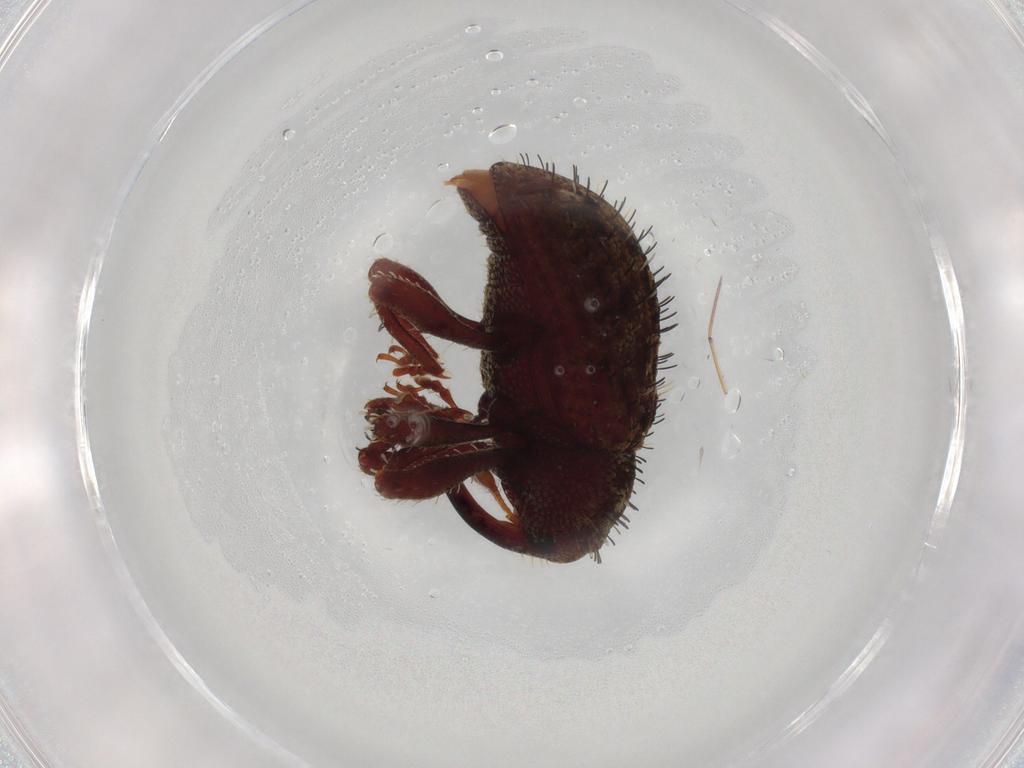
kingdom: Animalia
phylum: Arthropoda
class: Insecta
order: Coleoptera
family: Curculionidae
